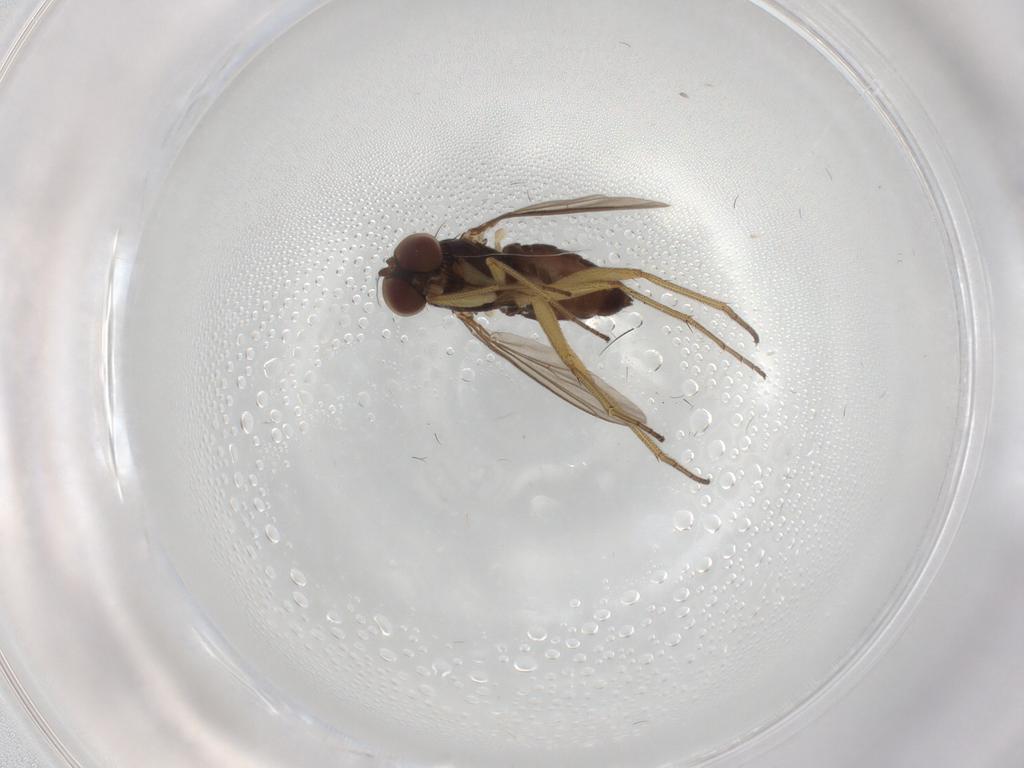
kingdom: Animalia
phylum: Arthropoda
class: Insecta
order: Diptera
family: Dolichopodidae
